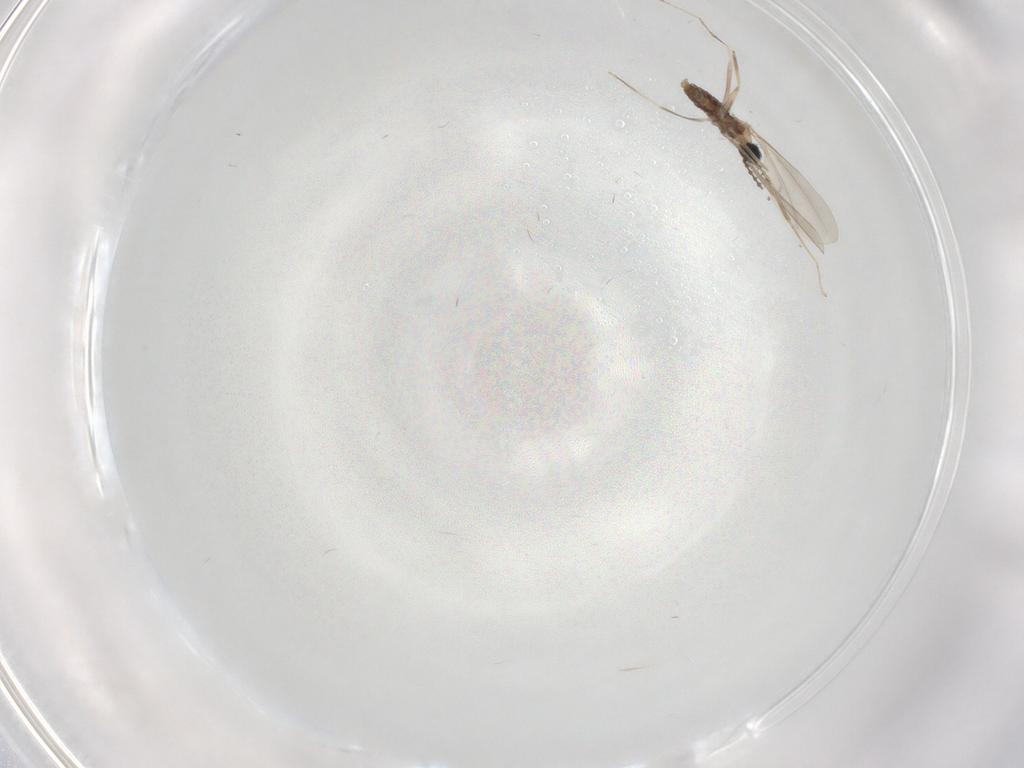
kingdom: Animalia
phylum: Arthropoda
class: Insecta
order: Diptera
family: Cecidomyiidae
